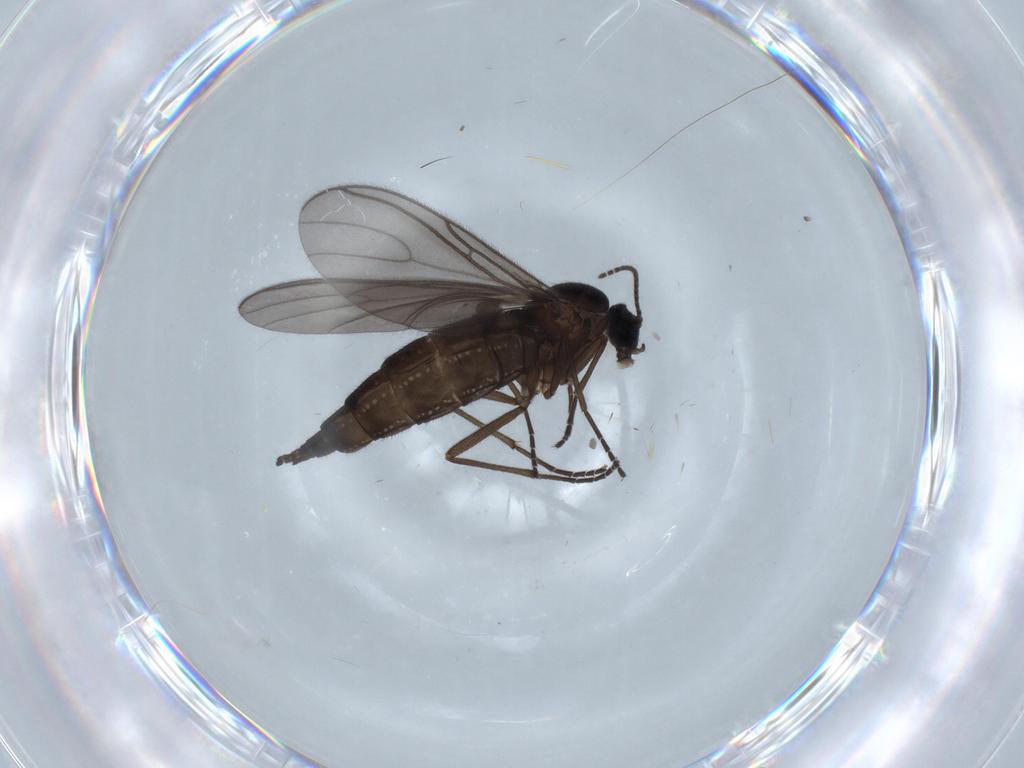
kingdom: Animalia
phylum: Arthropoda
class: Insecta
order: Diptera
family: Sciaridae
